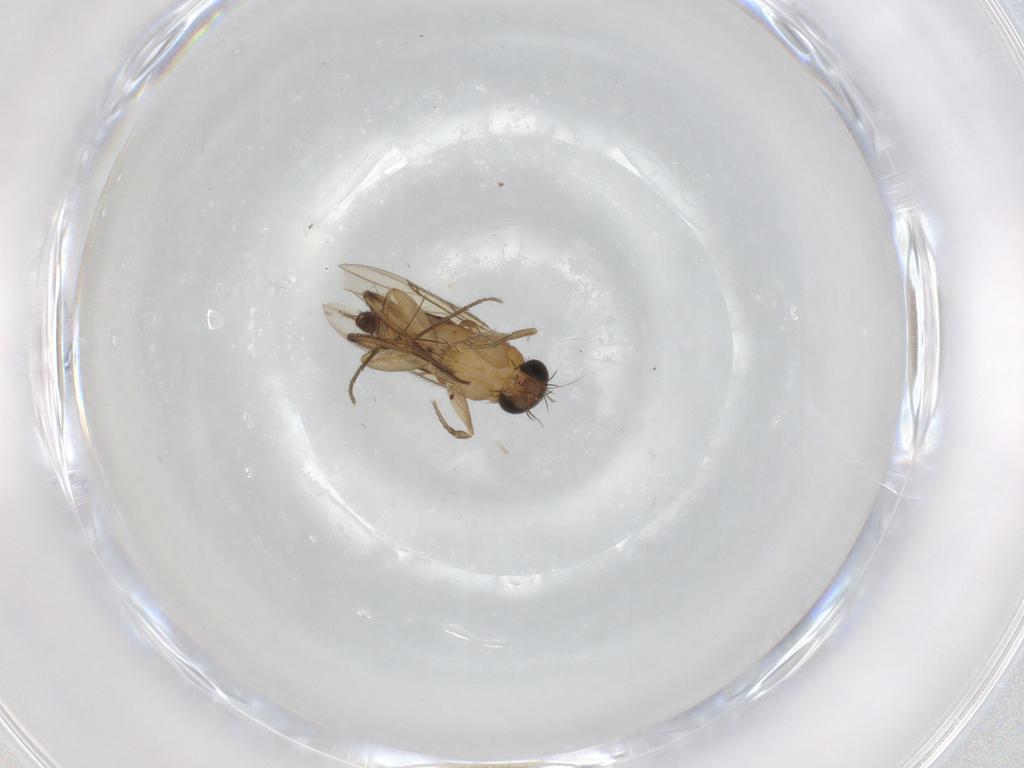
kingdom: Animalia
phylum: Arthropoda
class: Insecta
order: Diptera
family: Phoridae
